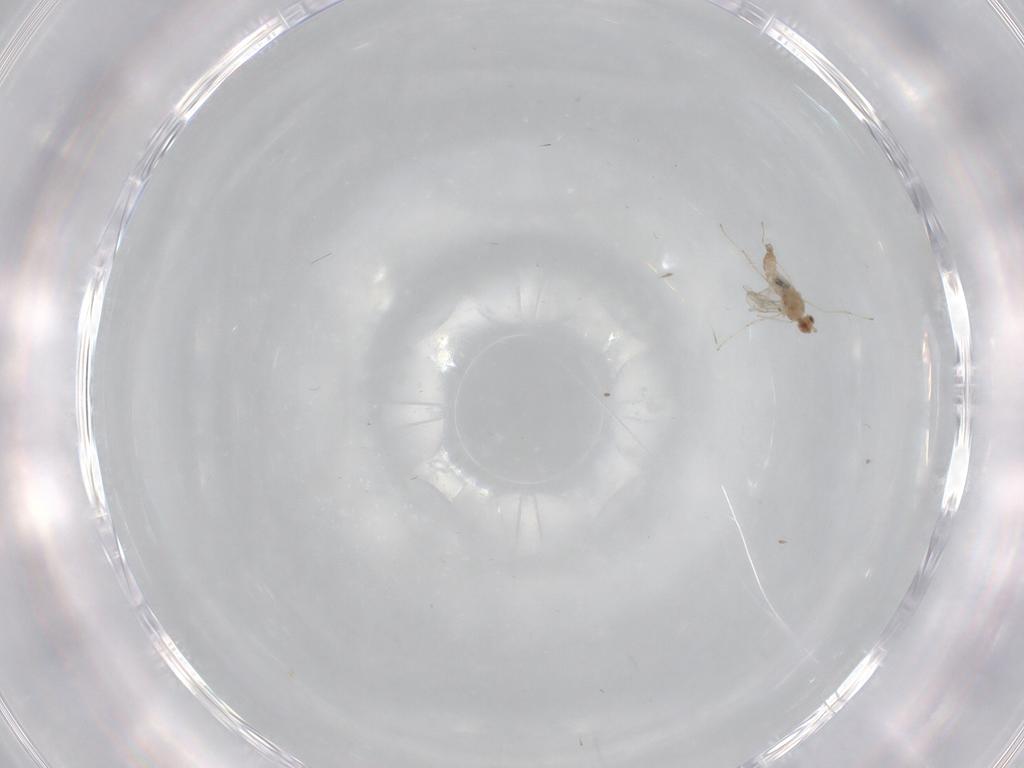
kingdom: Animalia
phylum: Arthropoda
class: Insecta
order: Diptera
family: Cecidomyiidae
